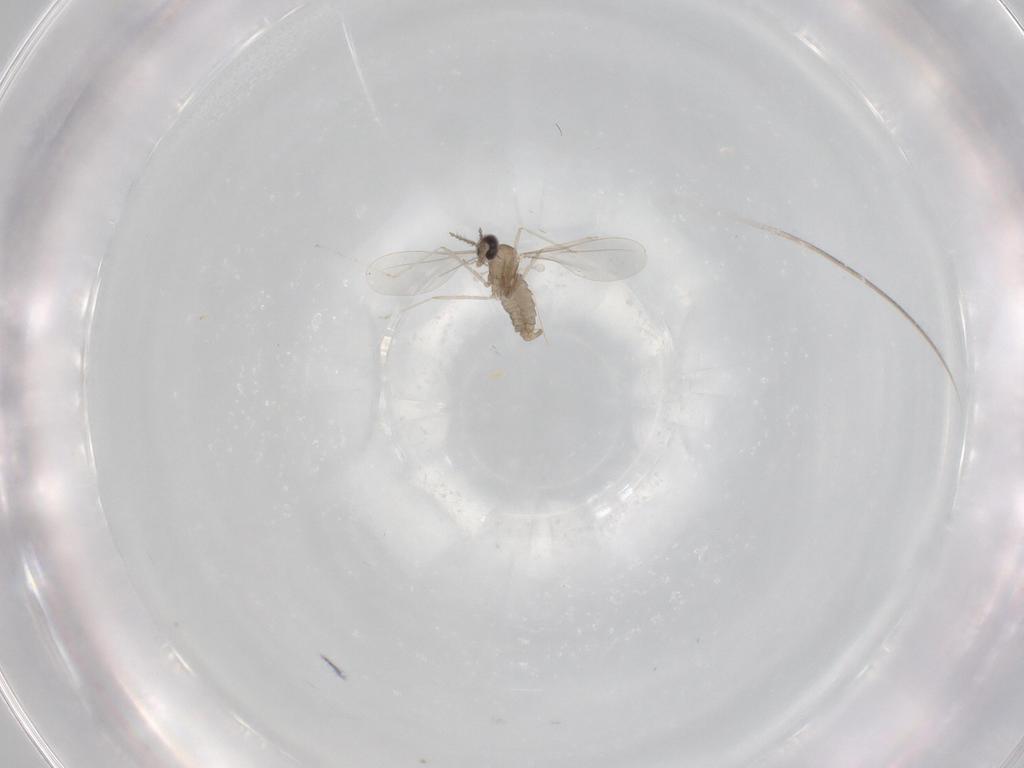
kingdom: Animalia
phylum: Arthropoda
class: Insecta
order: Diptera
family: Cecidomyiidae
